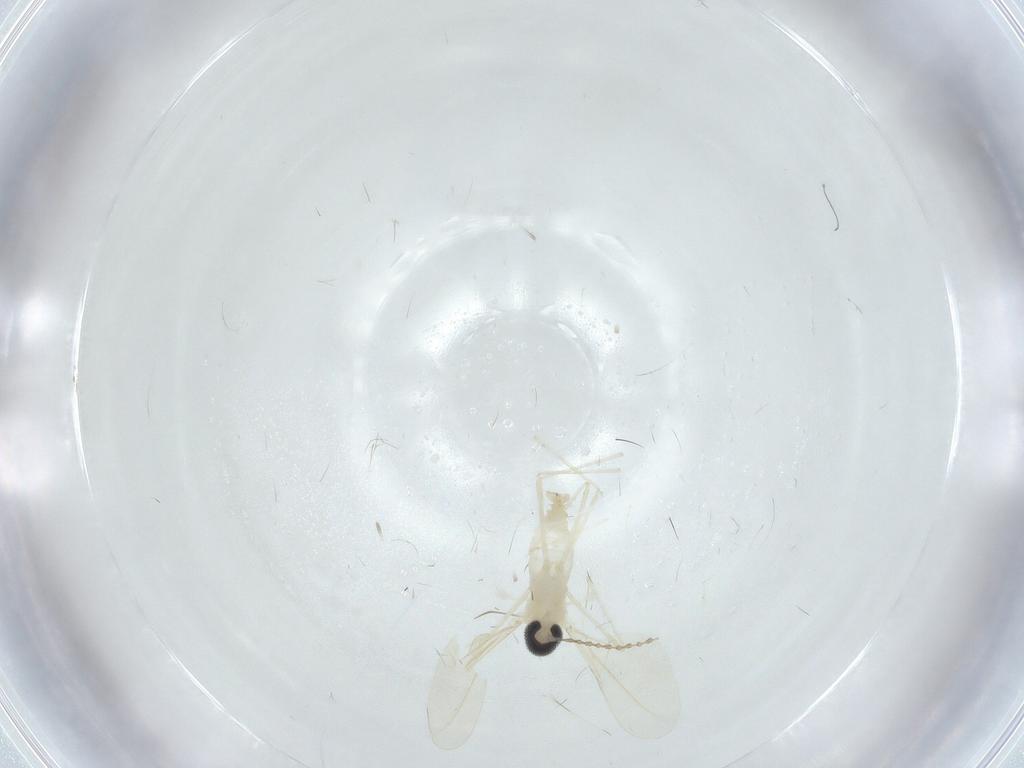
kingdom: Animalia
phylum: Arthropoda
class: Insecta
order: Diptera
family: Ceratopogonidae
